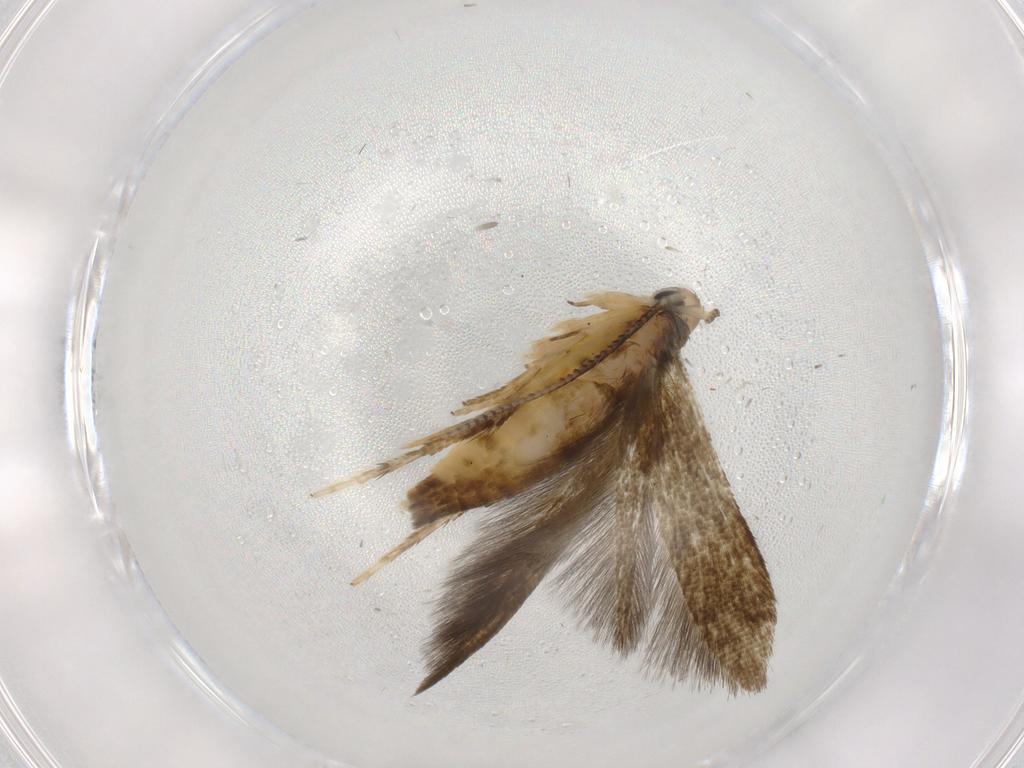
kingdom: Animalia
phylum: Arthropoda
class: Insecta
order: Lepidoptera
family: Stathmopodidae
